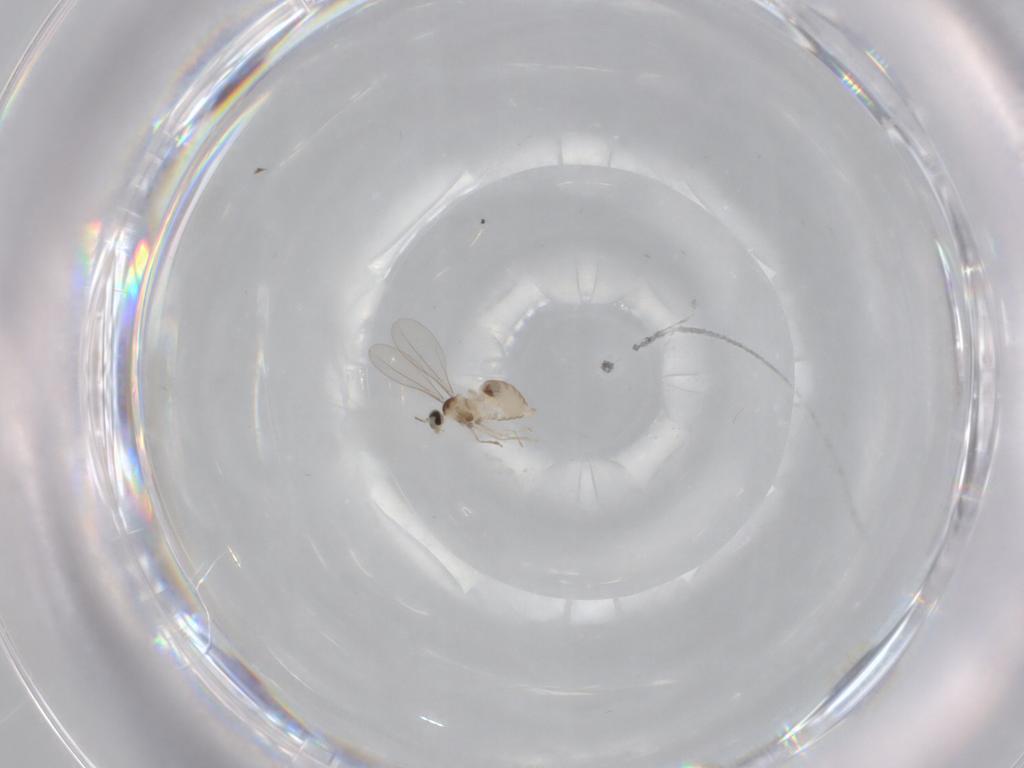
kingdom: Animalia
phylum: Arthropoda
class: Insecta
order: Diptera
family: Cecidomyiidae
